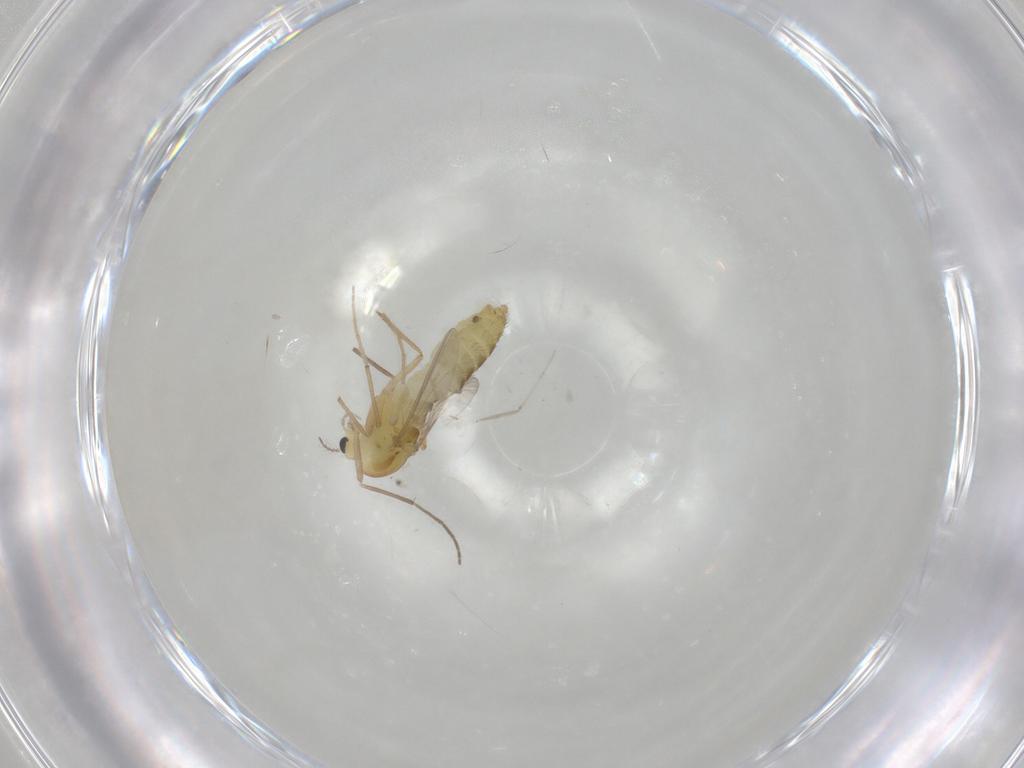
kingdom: Animalia
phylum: Arthropoda
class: Insecta
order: Diptera
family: Chironomidae
